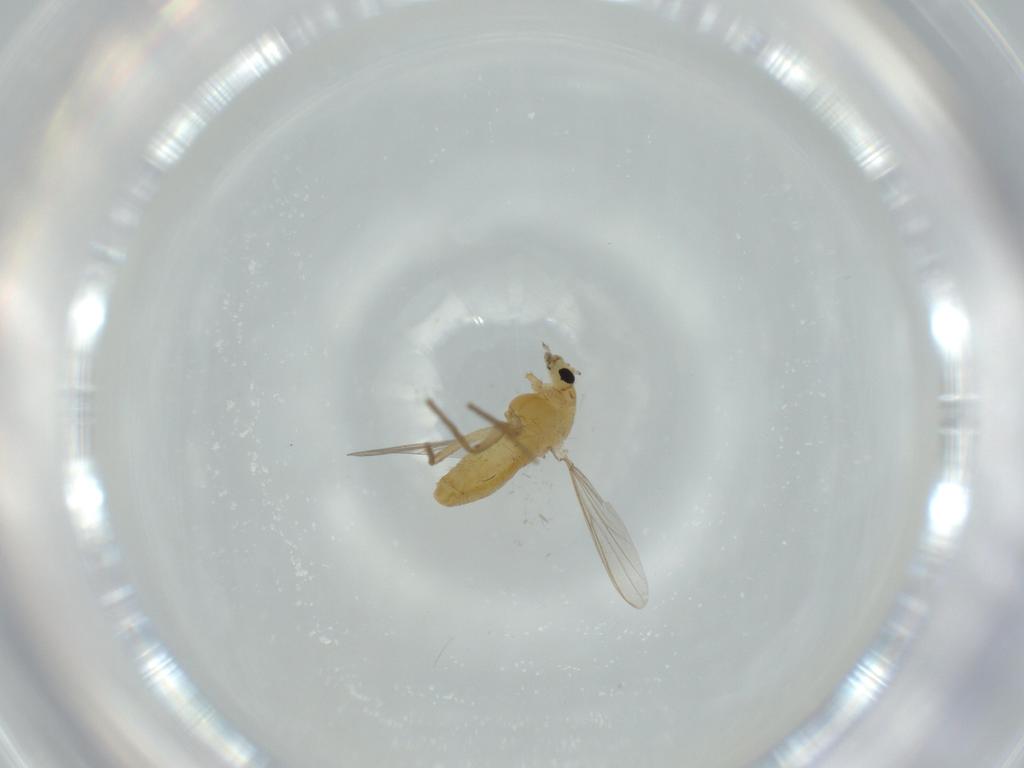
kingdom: Animalia
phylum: Arthropoda
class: Insecta
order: Diptera
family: Chironomidae
